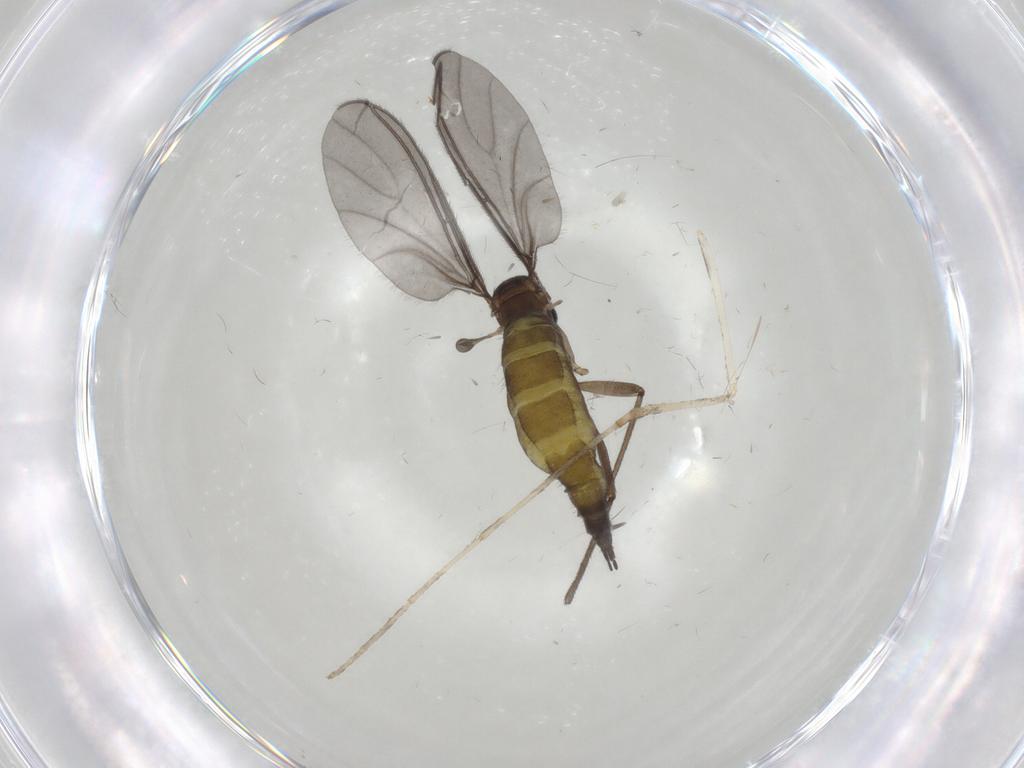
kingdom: Animalia
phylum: Arthropoda
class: Insecta
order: Diptera
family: Sciaridae
